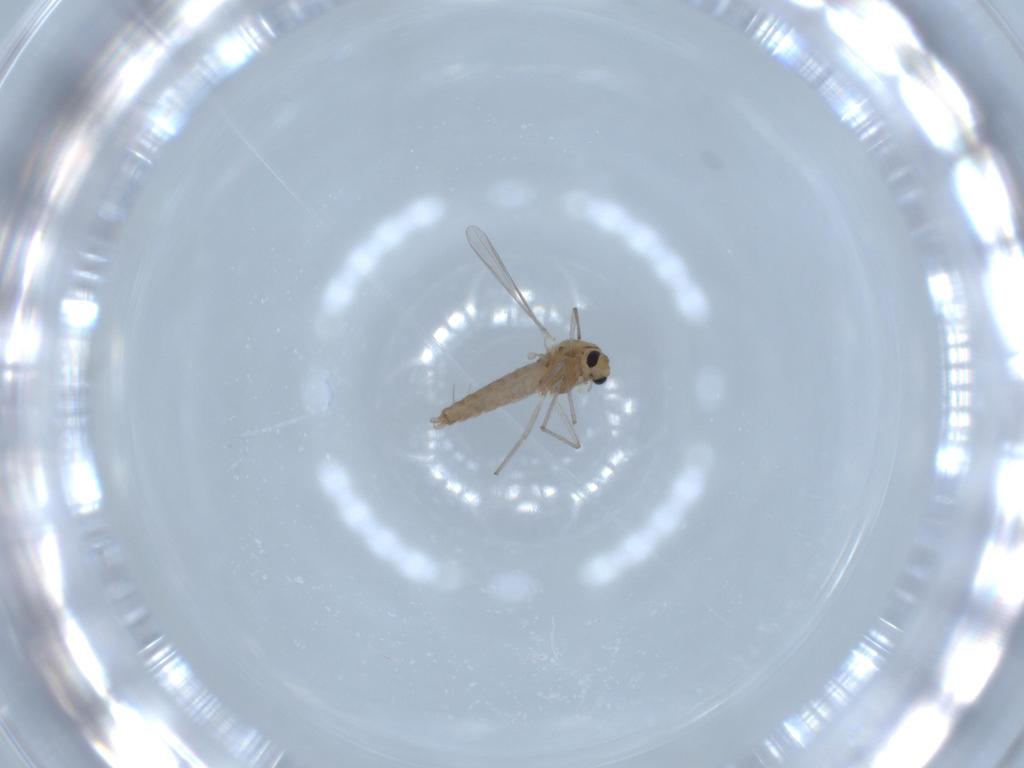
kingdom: Animalia
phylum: Arthropoda
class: Insecta
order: Diptera
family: Chironomidae
